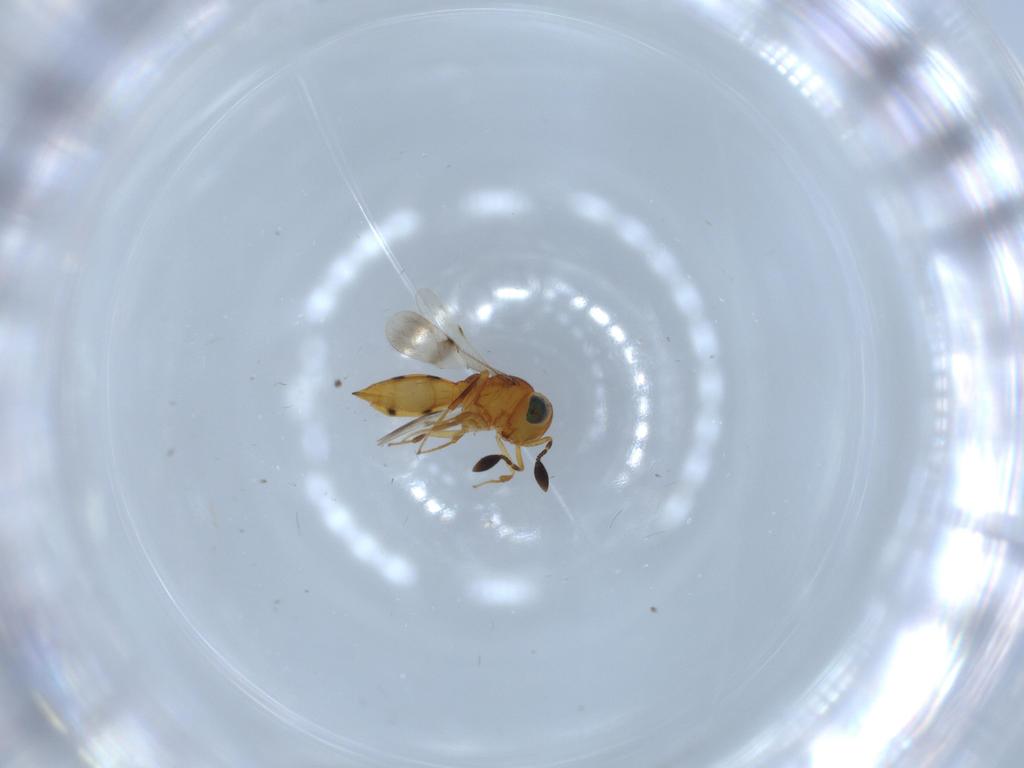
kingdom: Animalia
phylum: Arthropoda
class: Insecta
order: Hymenoptera
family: Scelionidae
